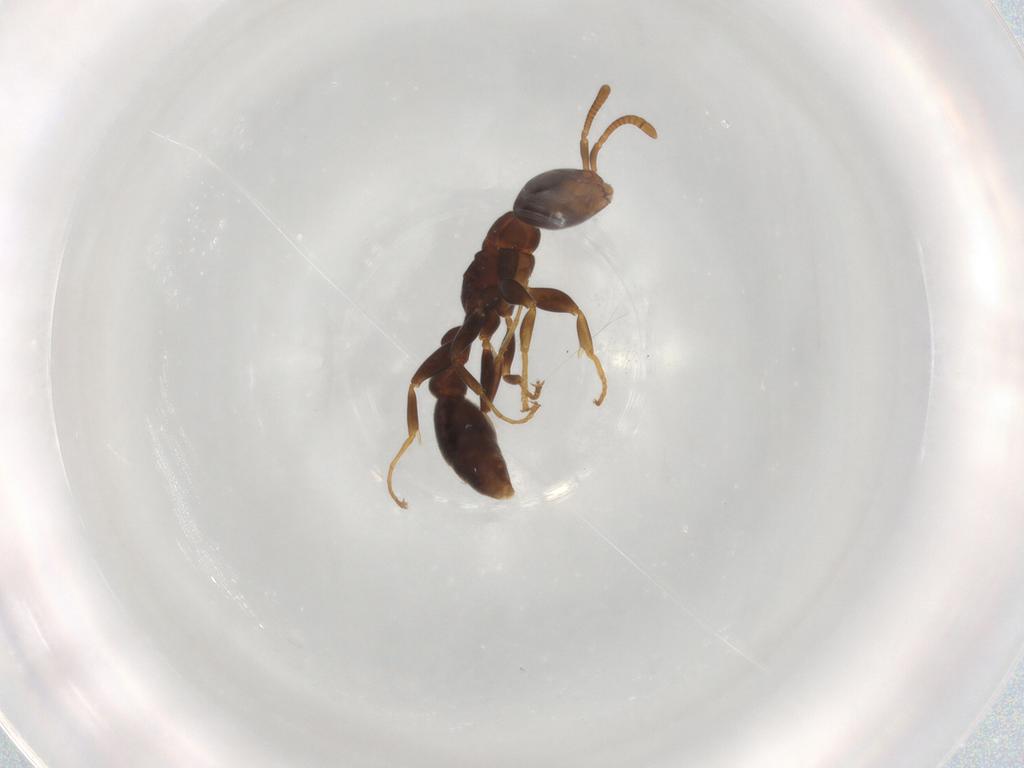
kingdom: Animalia
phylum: Arthropoda
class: Insecta
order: Hymenoptera
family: Formicidae
